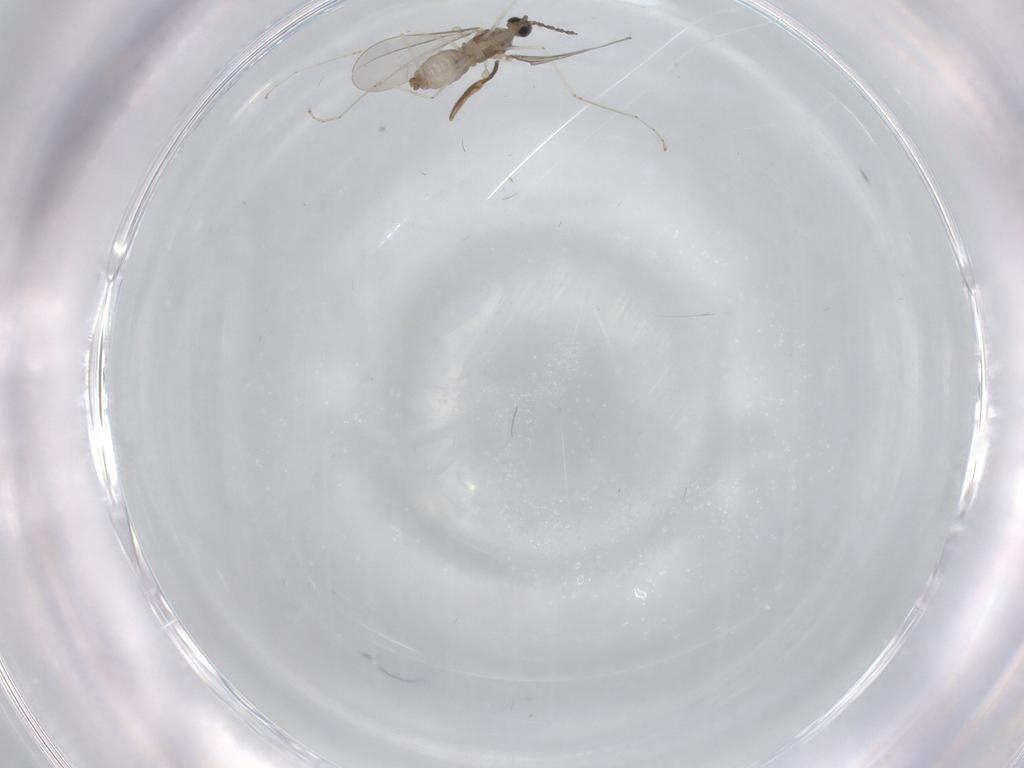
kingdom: Animalia
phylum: Arthropoda
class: Insecta
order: Diptera
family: Phoridae
